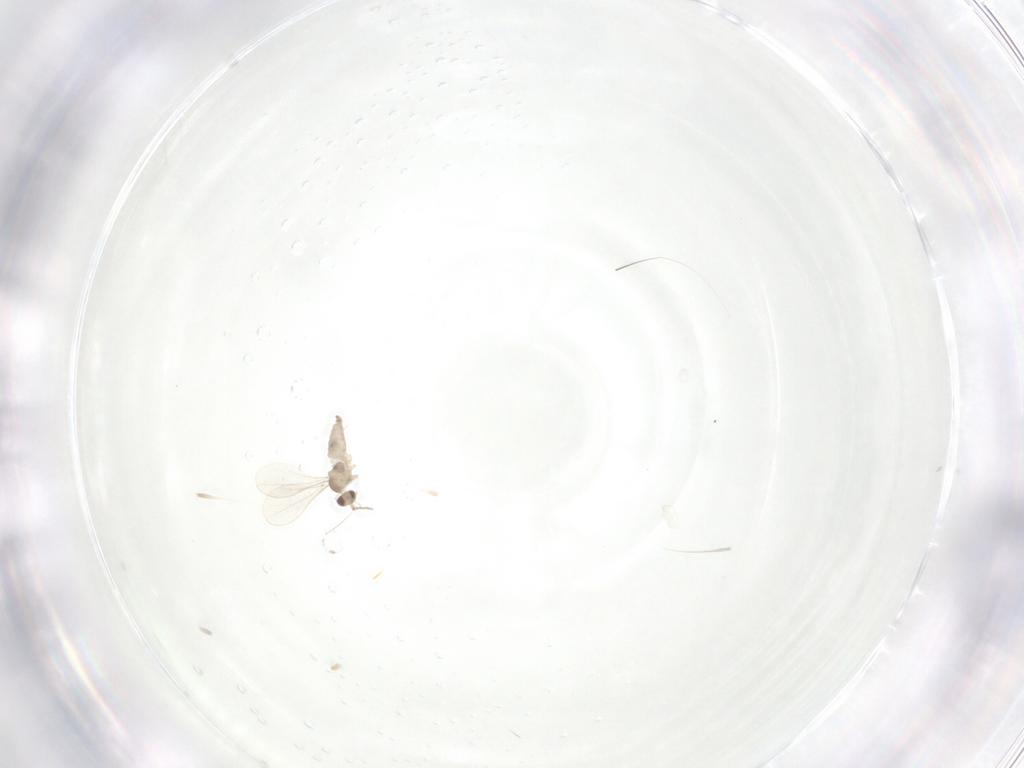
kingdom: Animalia
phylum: Arthropoda
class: Insecta
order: Diptera
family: Cecidomyiidae
